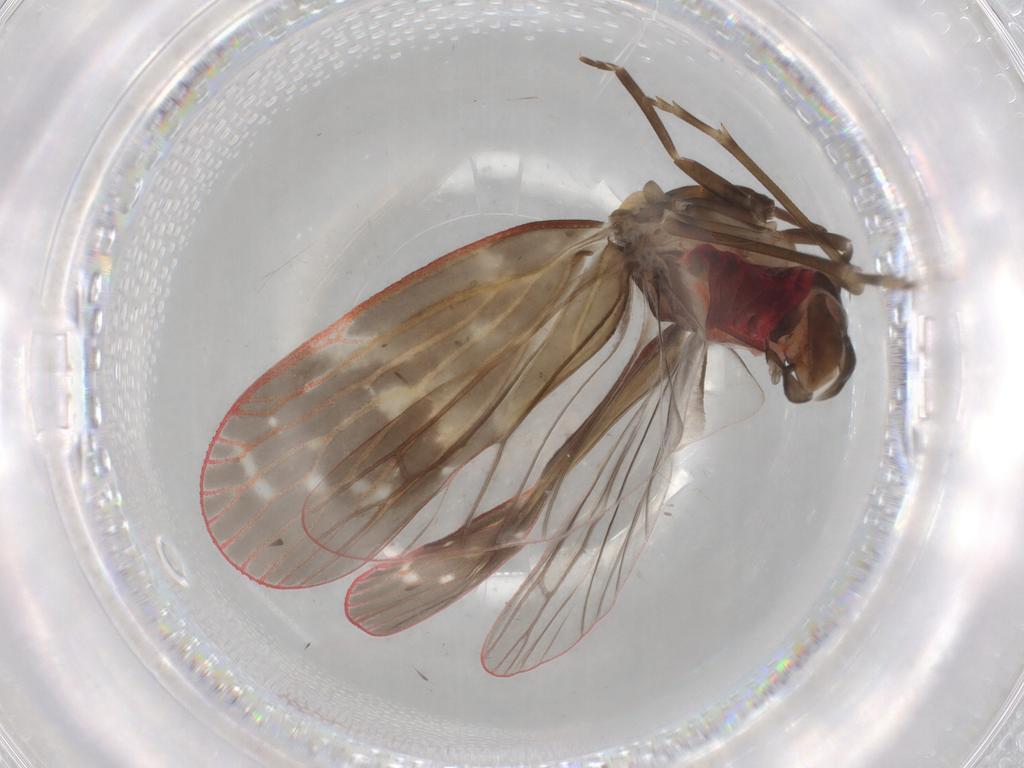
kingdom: Animalia
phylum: Arthropoda
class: Insecta
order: Hemiptera
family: Achilidae
